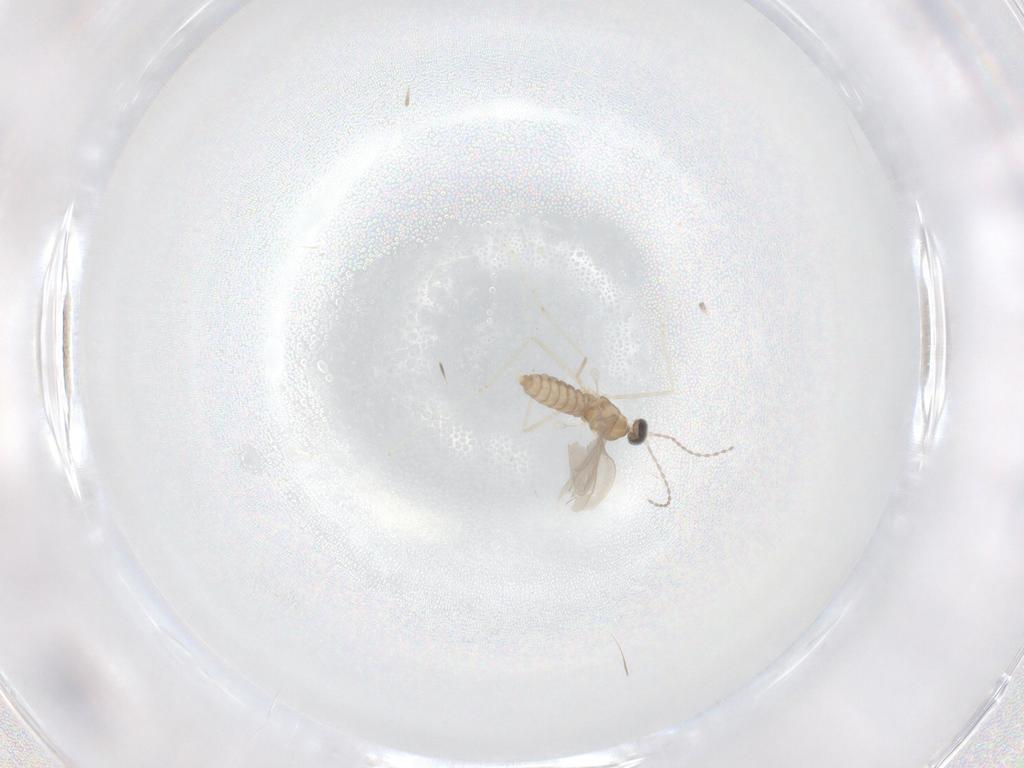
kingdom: Animalia
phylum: Arthropoda
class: Insecta
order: Diptera
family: Cecidomyiidae
